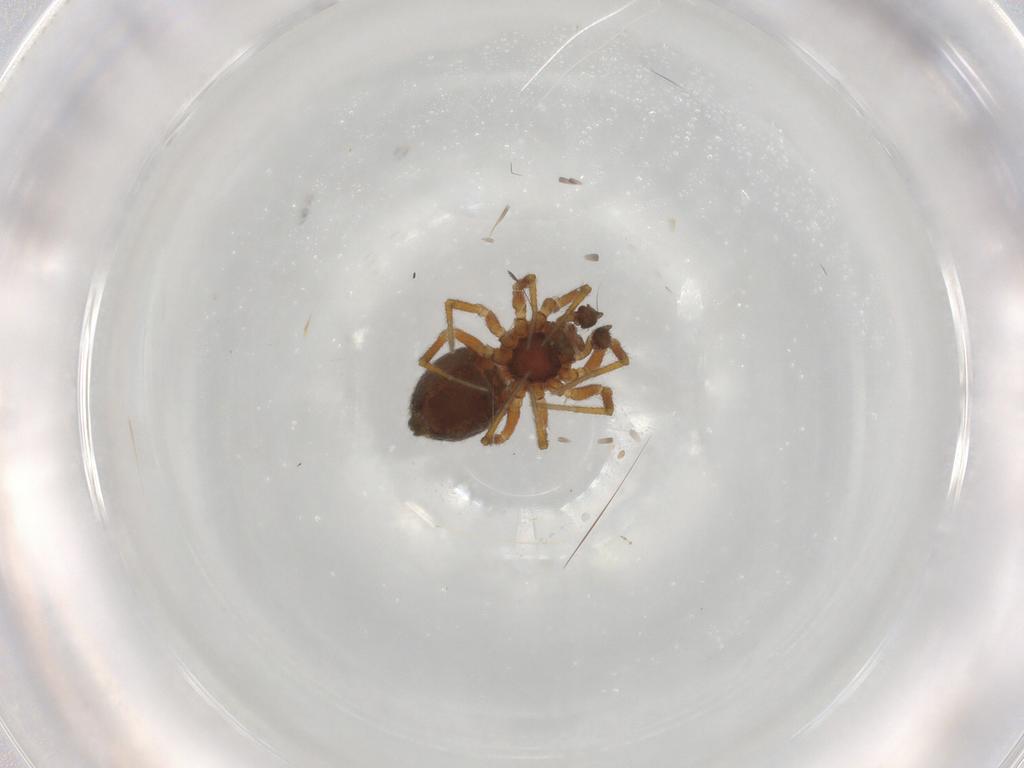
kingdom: Animalia
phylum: Arthropoda
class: Arachnida
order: Araneae
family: Linyphiidae
